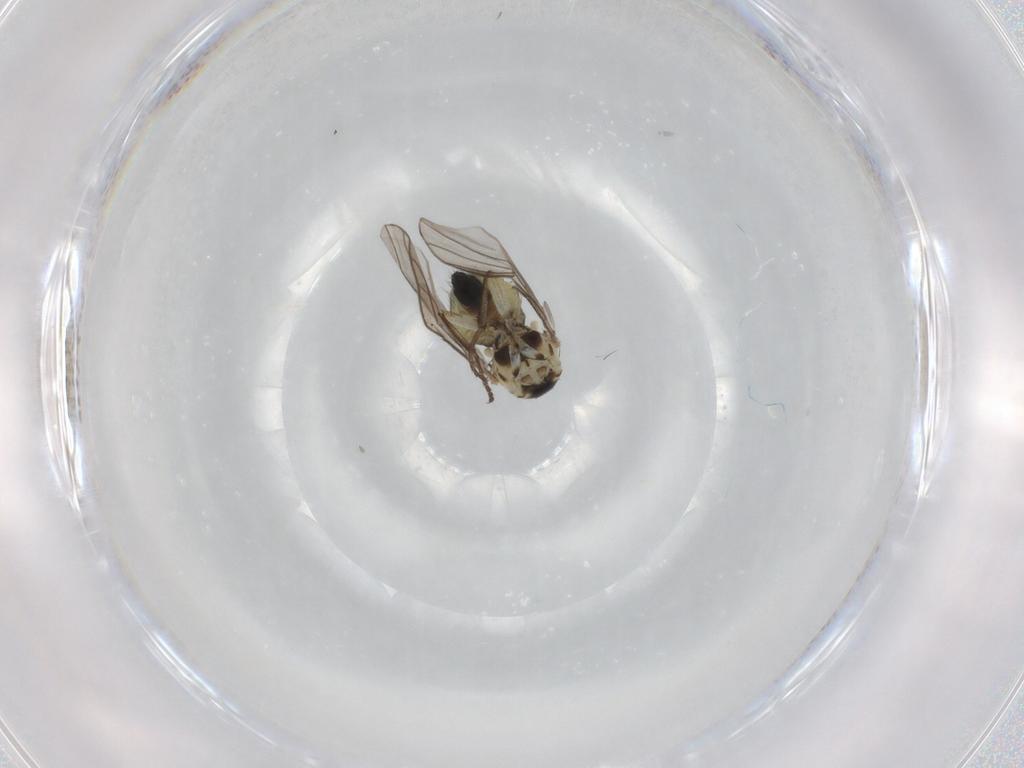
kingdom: Animalia
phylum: Arthropoda
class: Insecta
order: Diptera
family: Agromyzidae
